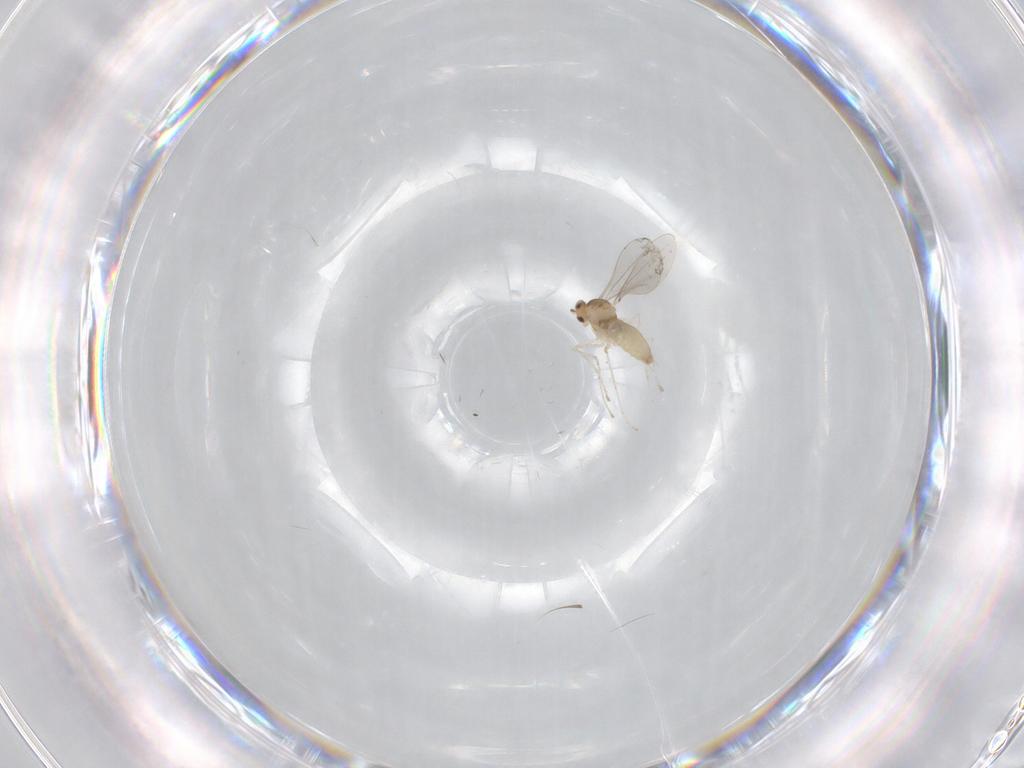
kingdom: Animalia
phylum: Arthropoda
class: Insecta
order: Diptera
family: Cecidomyiidae
